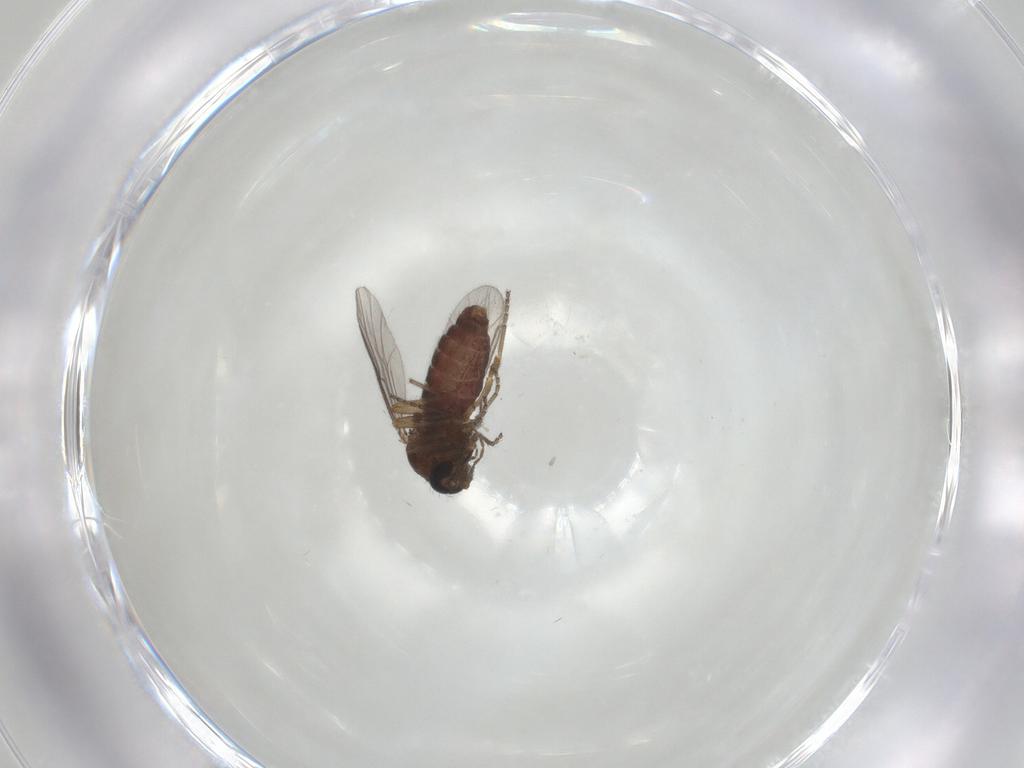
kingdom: Animalia
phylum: Arthropoda
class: Insecta
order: Diptera
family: Ceratopogonidae
